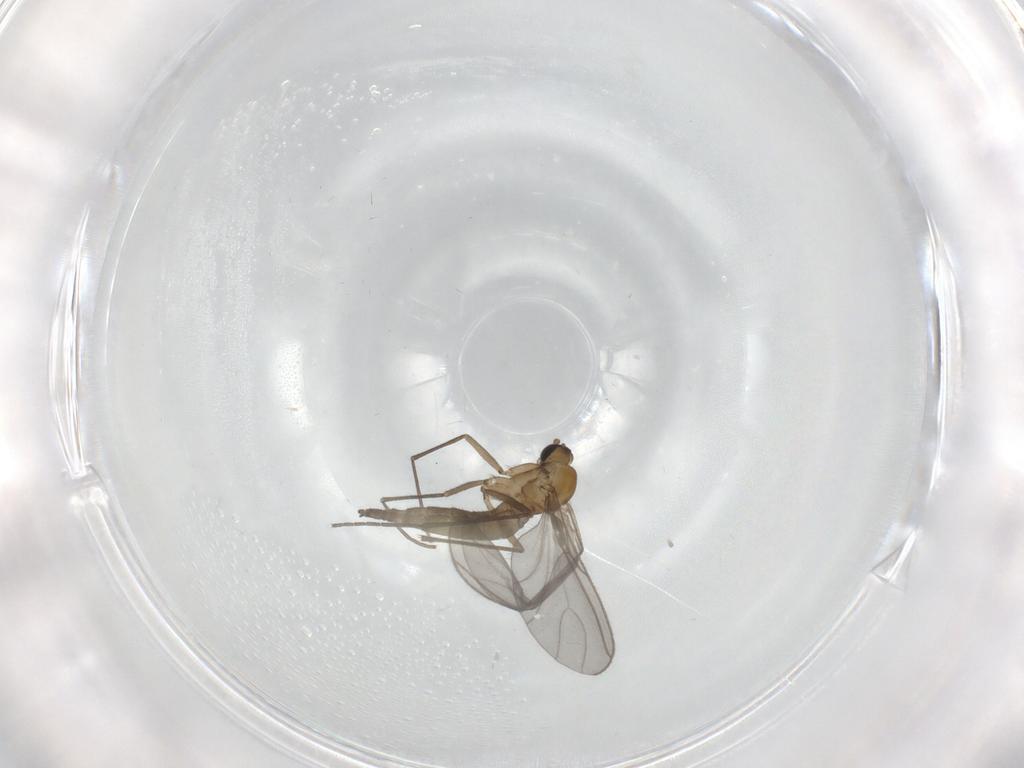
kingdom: Animalia
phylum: Arthropoda
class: Insecta
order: Diptera
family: Sciaridae
